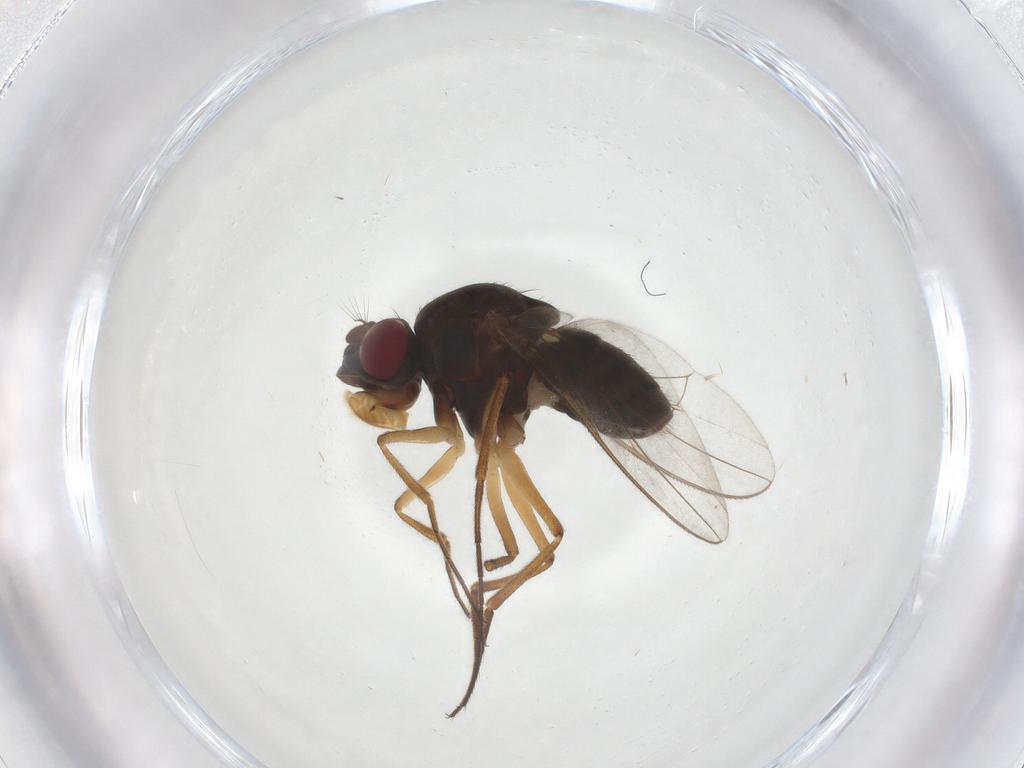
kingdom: Animalia
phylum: Arthropoda
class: Insecta
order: Diptera
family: Ephydridae
